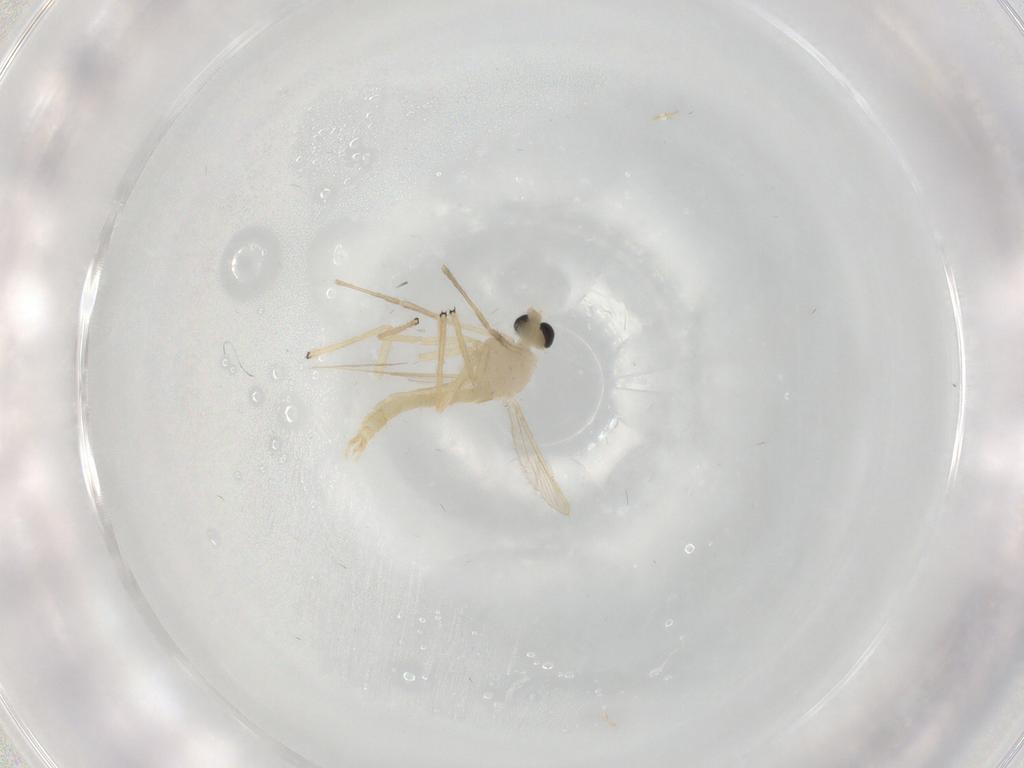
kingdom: Animalia
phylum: Arthropoda
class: Insecta
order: Diptera
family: Chironomidae
